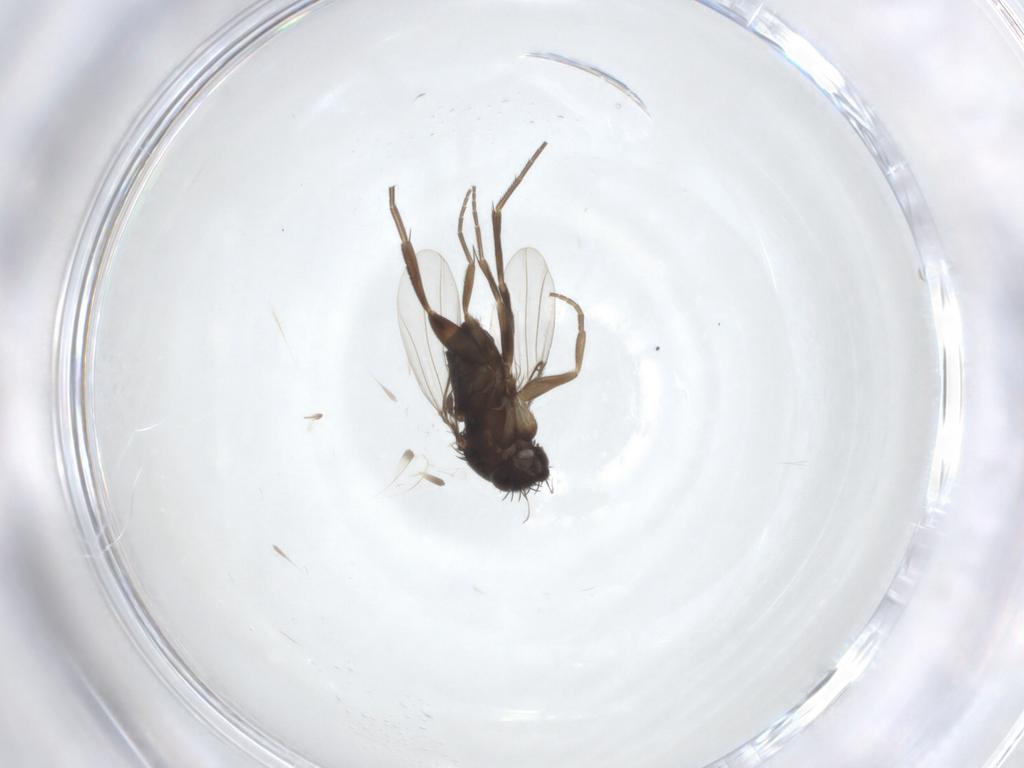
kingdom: Animalia
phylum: Arthropoda
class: Insecta
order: Diptera
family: Phoridae
